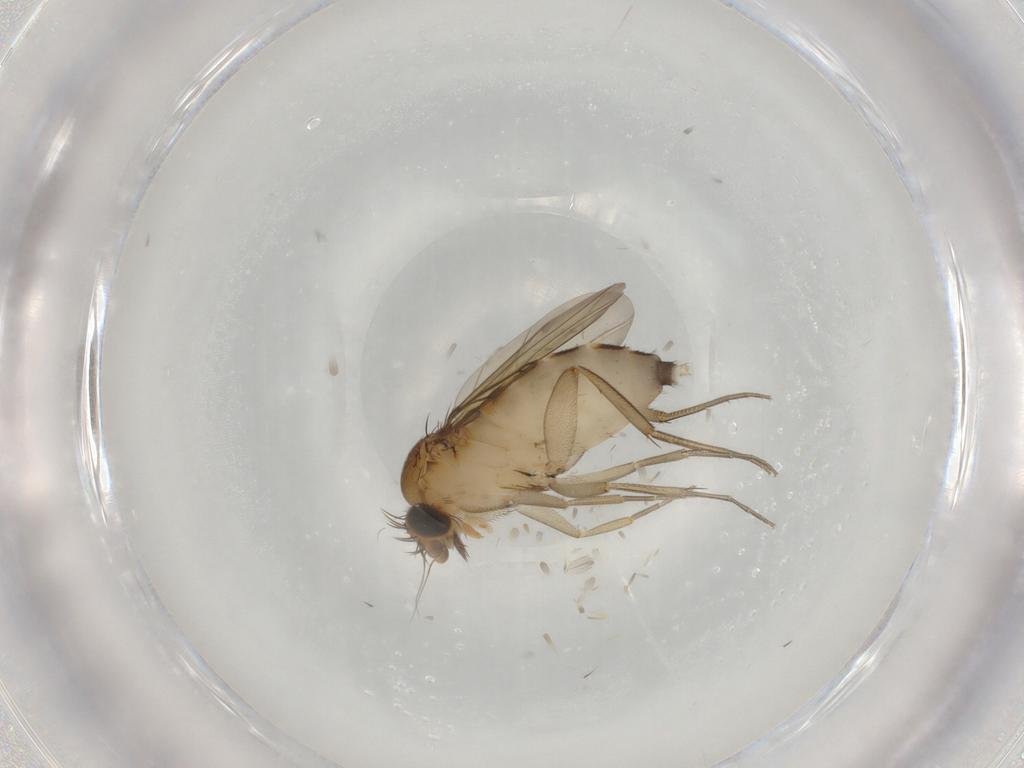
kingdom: Animalia
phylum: Arthropoda
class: Insecta
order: Diptera
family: Phoridae
